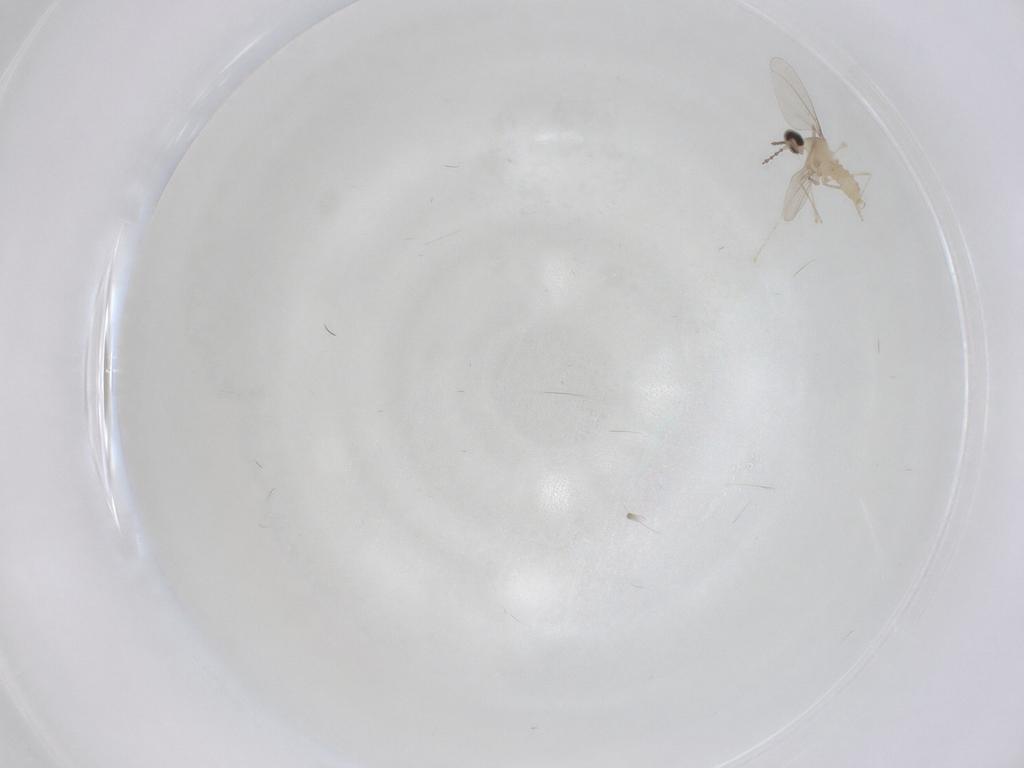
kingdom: Animalia
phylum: Arthropoda
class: Insecta
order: Diptera
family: Cecidomyiidae
